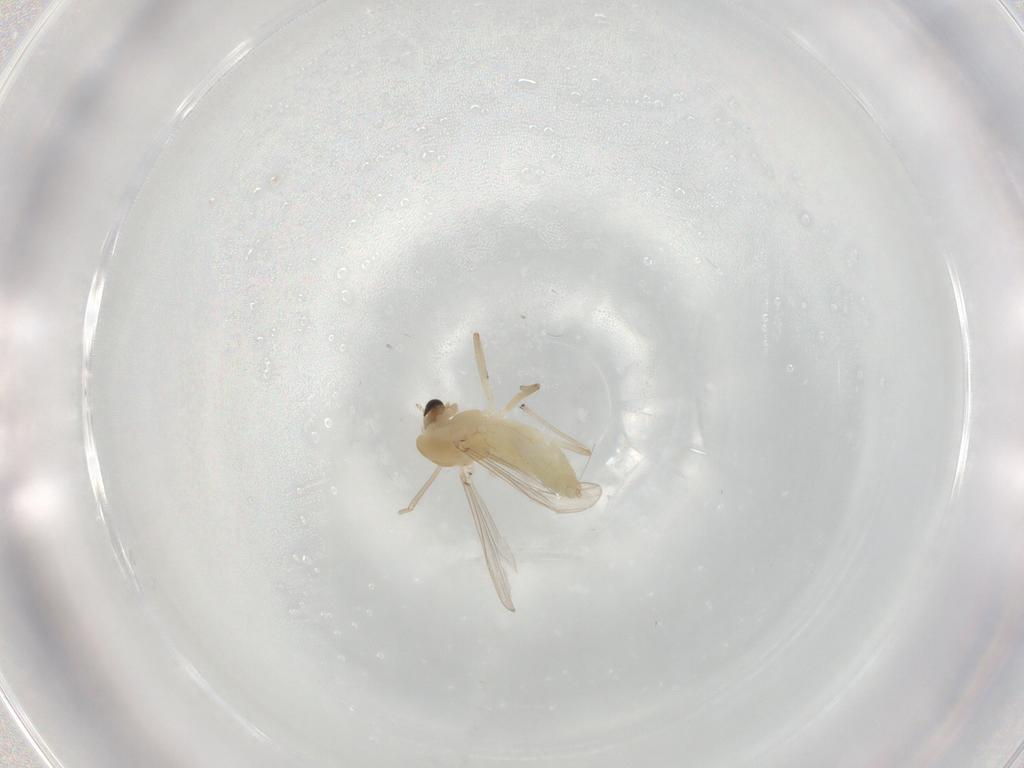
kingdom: Animalia
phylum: Arthropoda
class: Insecta
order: Diptera
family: Chironomidae
